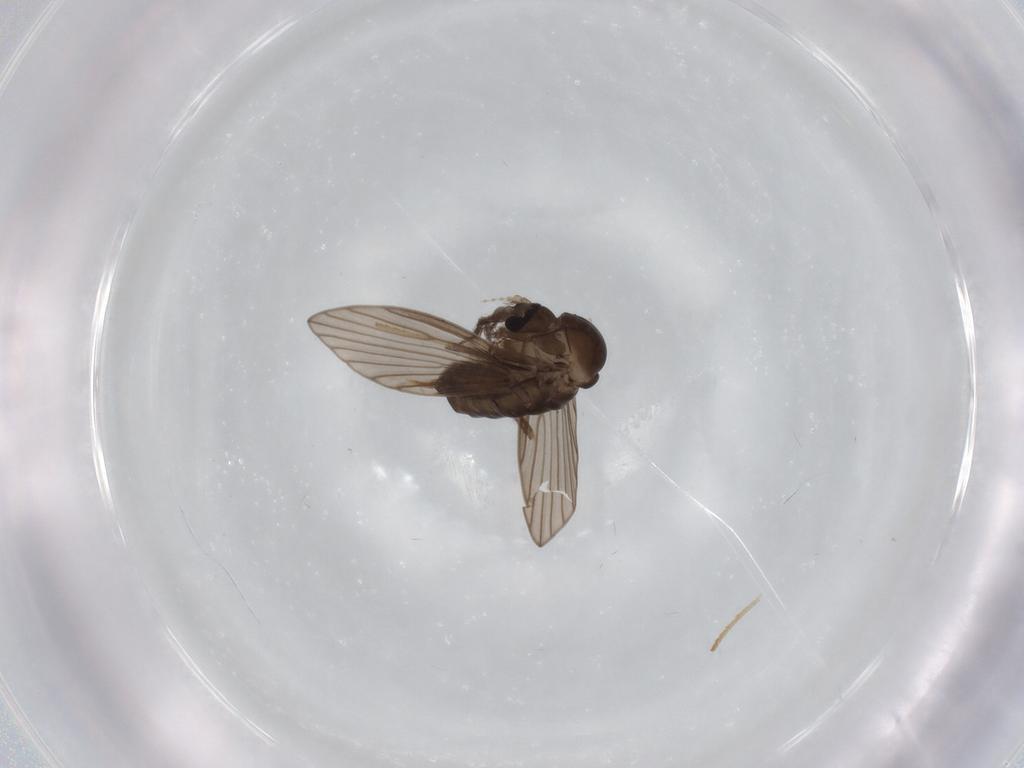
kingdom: Animalia
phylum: Arthropoda
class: Insecta
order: Diptera
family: Psychodidae
